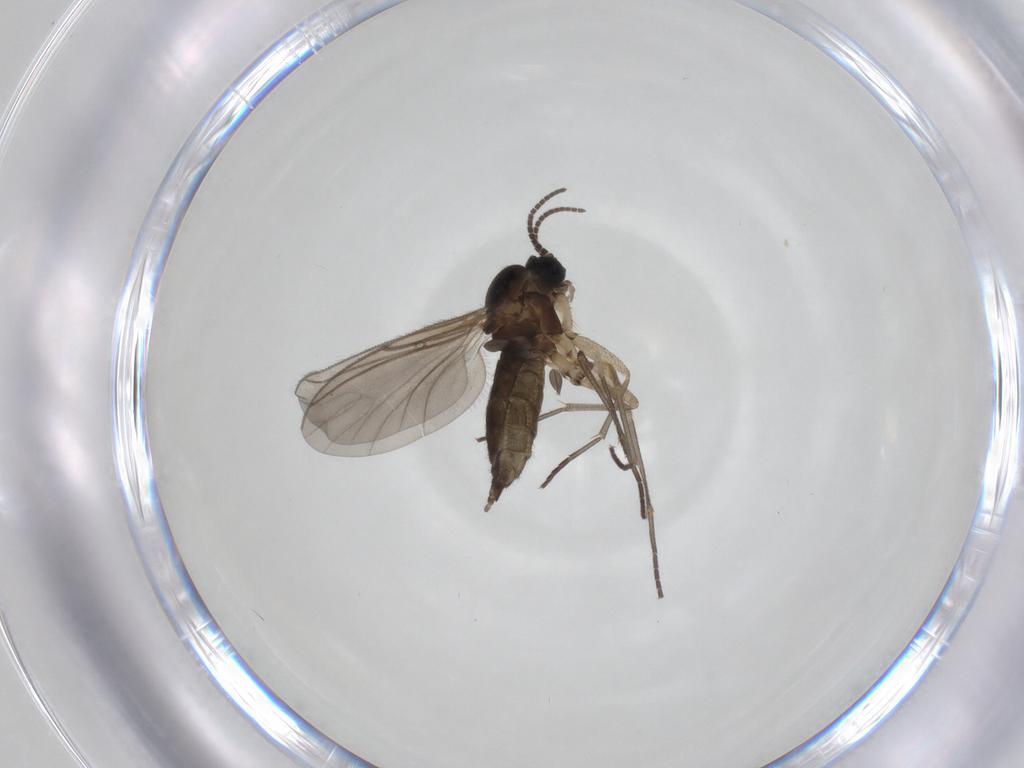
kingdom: Animalia
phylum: Arthropoda
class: Insecta
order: Diptera
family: Sciaridae
